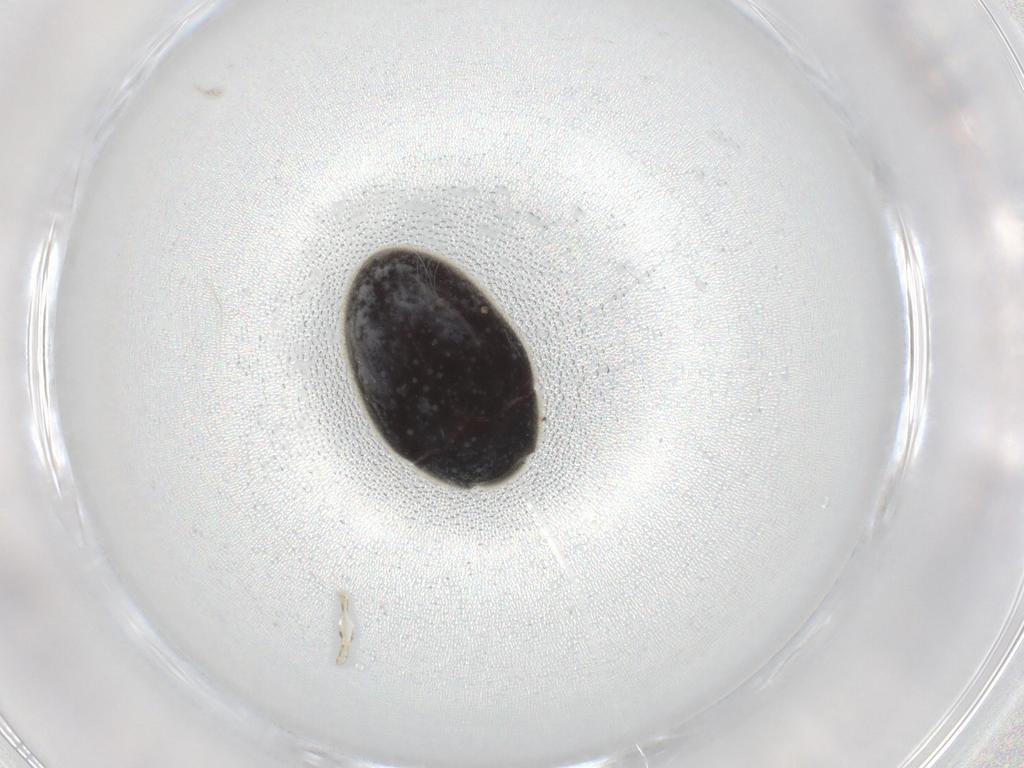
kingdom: Animalia
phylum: Arthropoda
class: Insecta
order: Coleoptera
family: Limnichidae
